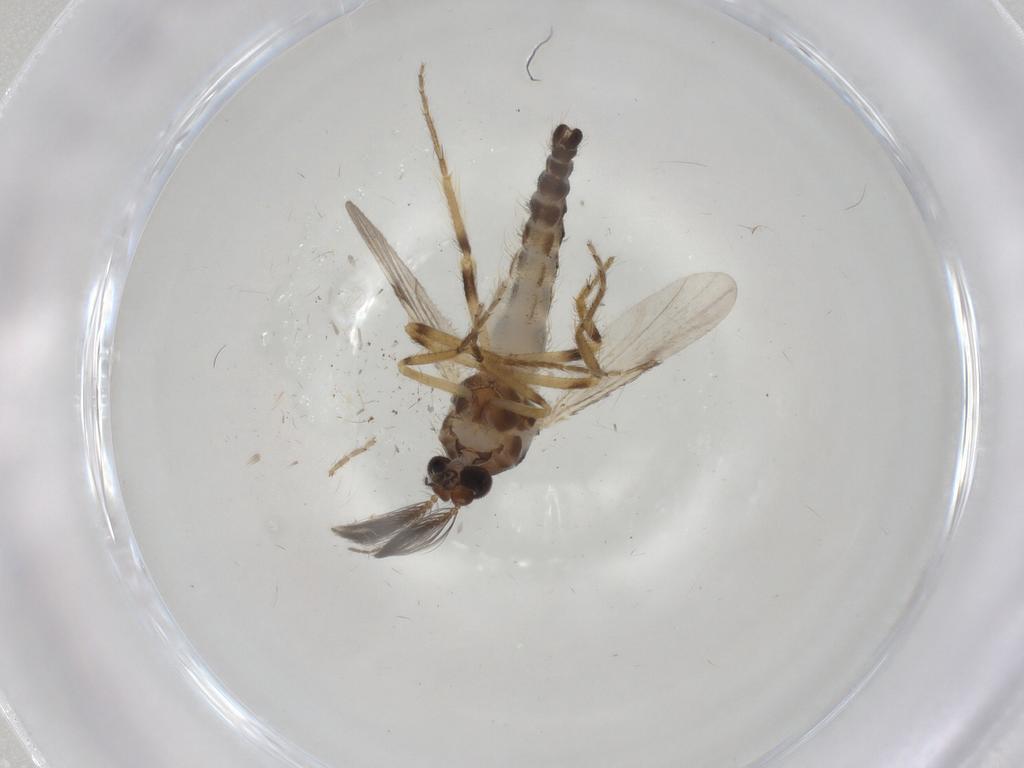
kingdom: Animalia
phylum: Arthropoda
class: Insecta
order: Diptera
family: Ceratopogonidae
